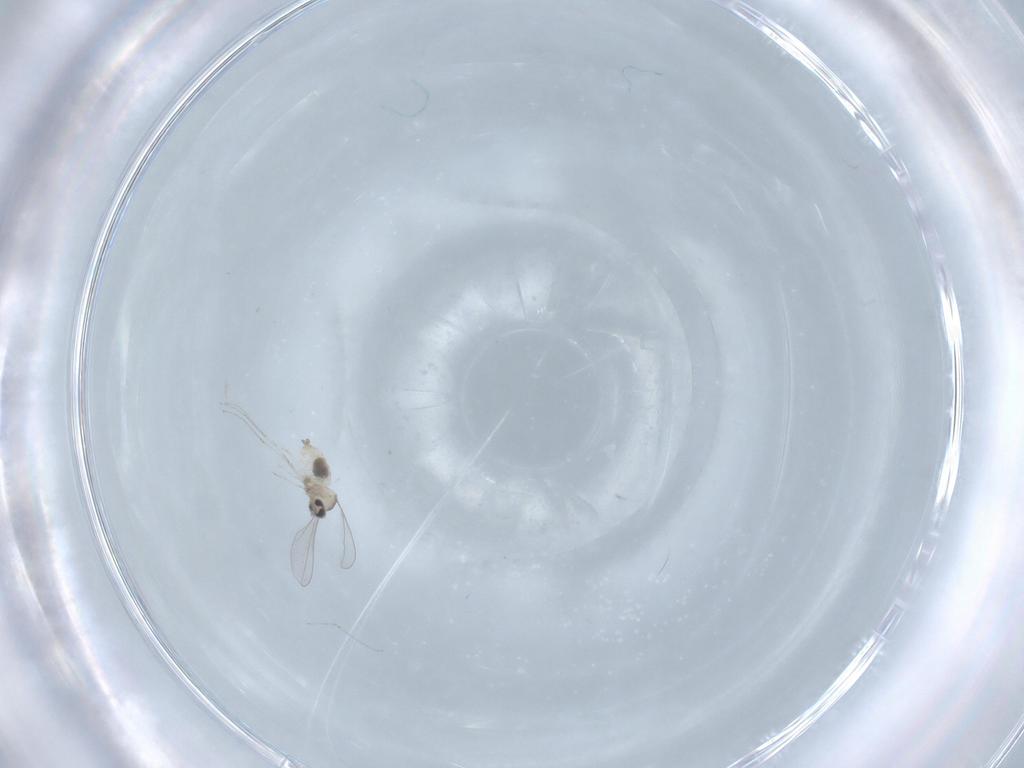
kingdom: Animalia
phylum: Arthropoda
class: Insecta
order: Diptera
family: Cecidomyiidae
